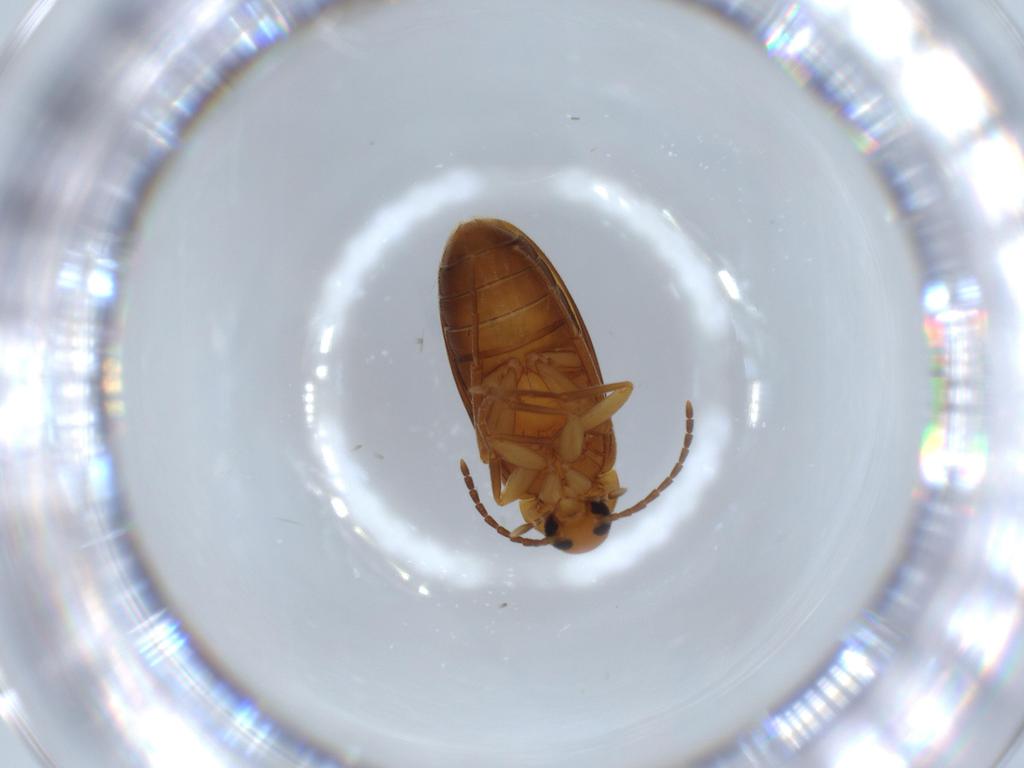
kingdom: Animalia
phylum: Arthropoda
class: Insecta
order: Coleoptera
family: Scraptiidae
